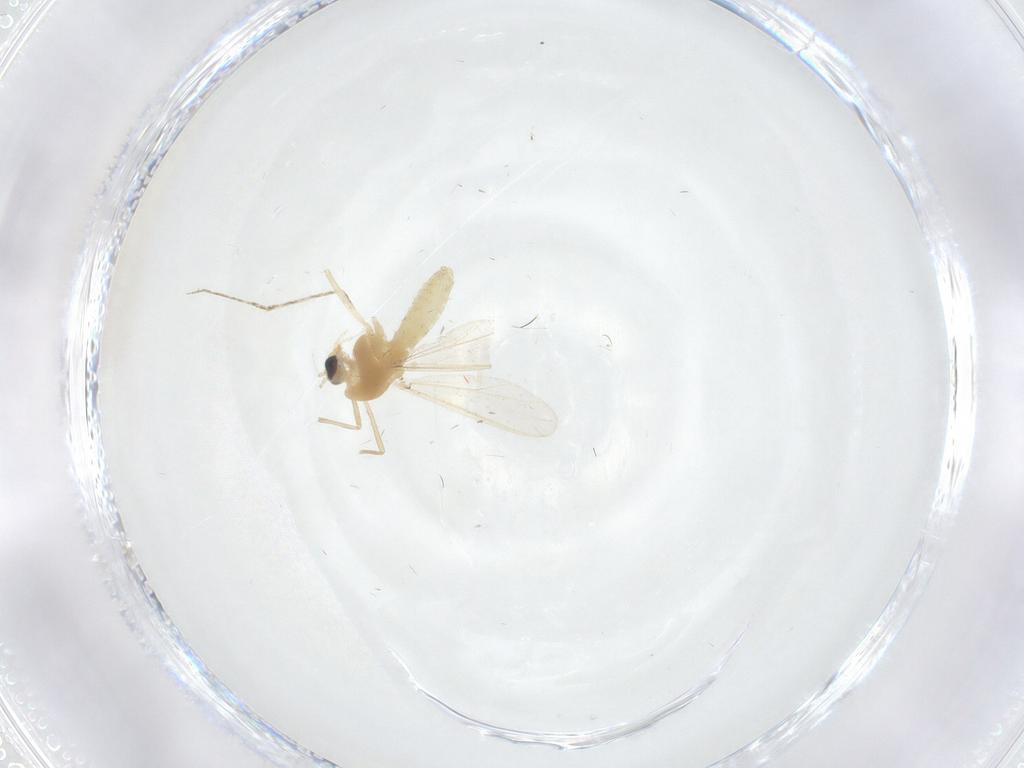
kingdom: Animalia
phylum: Arthropoda
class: Insecta
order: Diptera
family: Chironomidae
